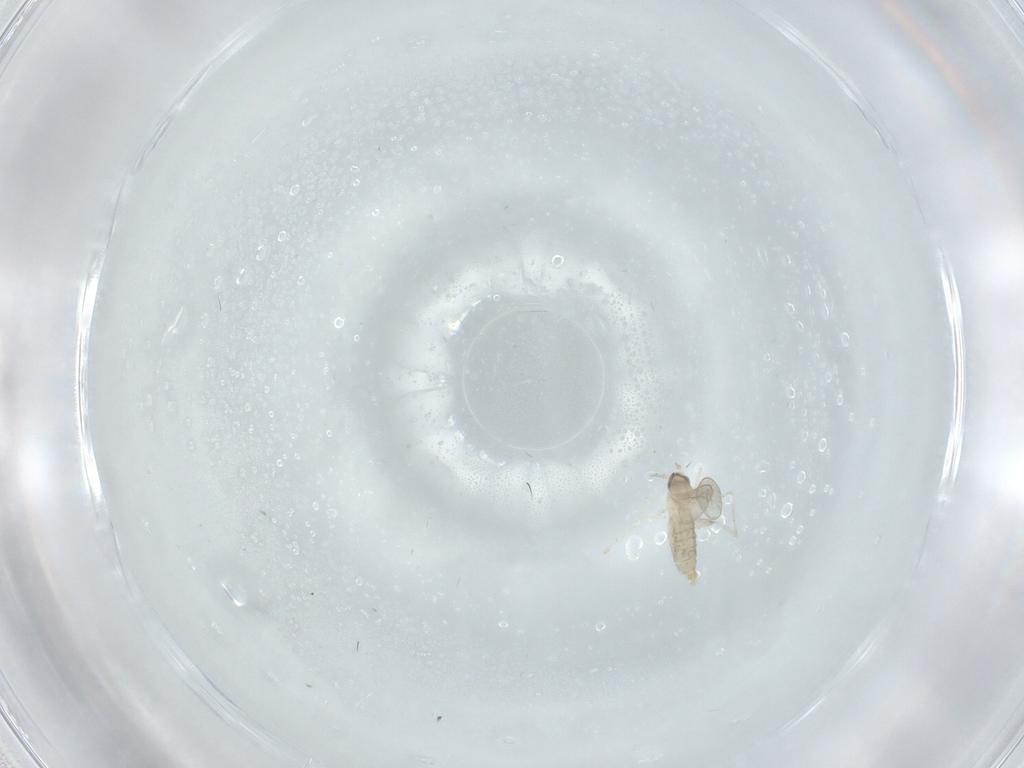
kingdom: Animalia
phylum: Arthropoda
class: Insecta
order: Diptera
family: Cecidomyiidae
